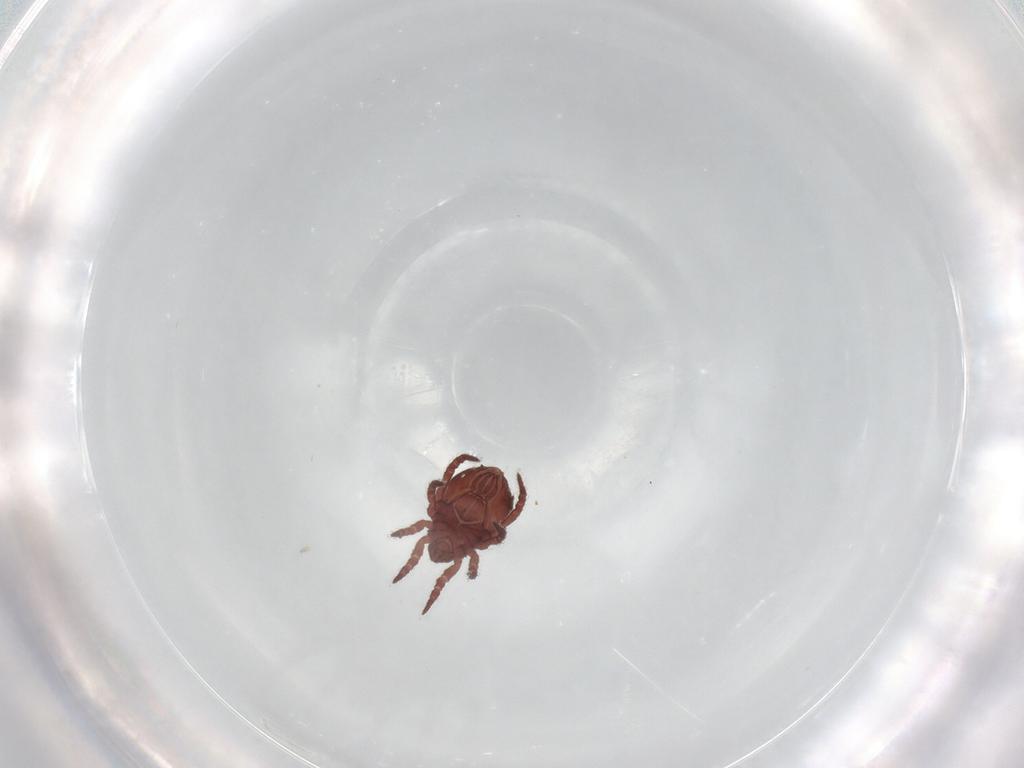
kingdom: Animalia
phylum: Arthropoda
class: Arachnida
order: Sarcoptiformes
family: Nothridae
